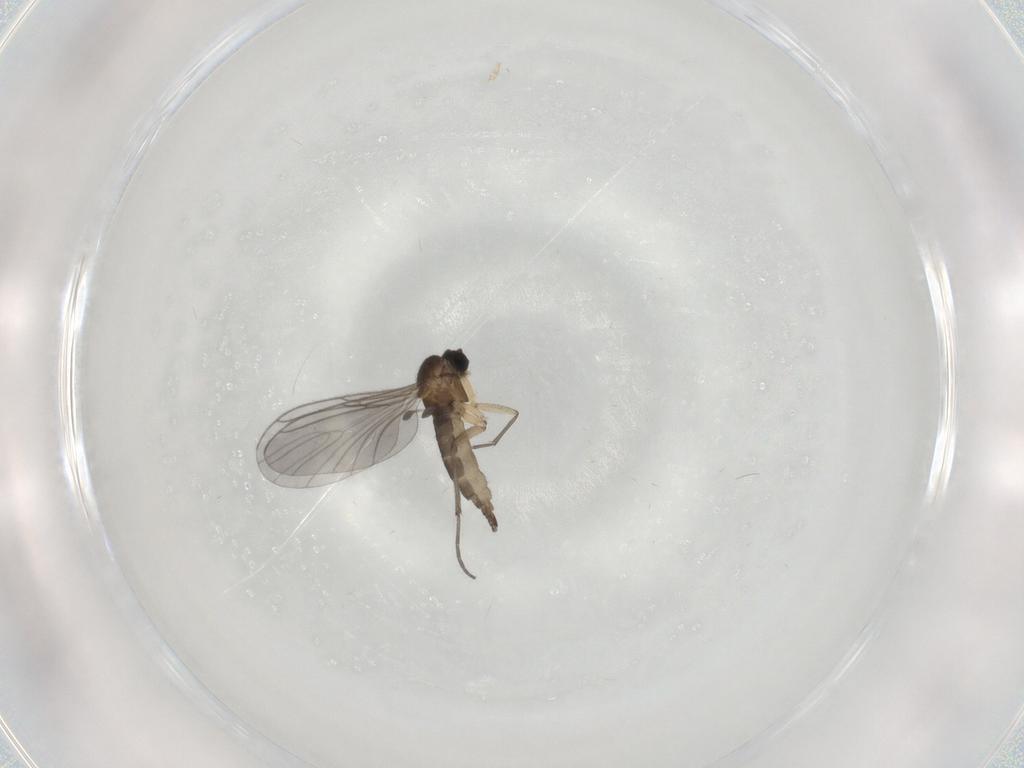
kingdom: Animalia
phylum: Arthropoda
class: Insecta
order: Diptera
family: Sciaridae
